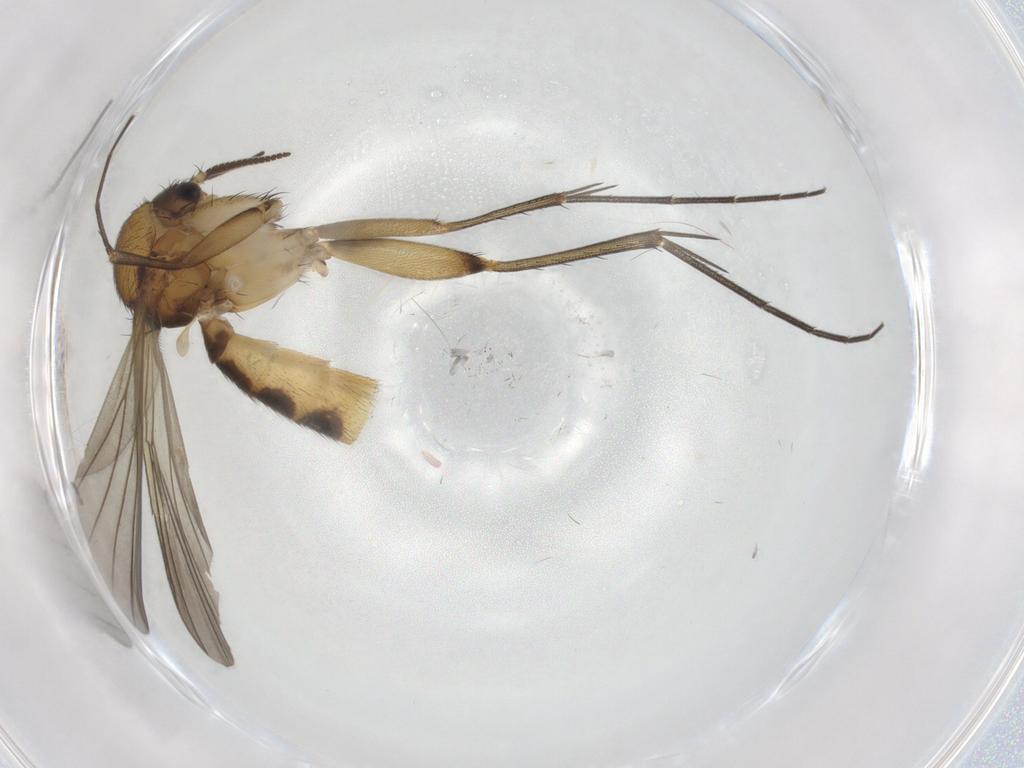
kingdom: Animalia
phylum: Arthropoda
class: Insecta
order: Diptera
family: Mycetophilidae
